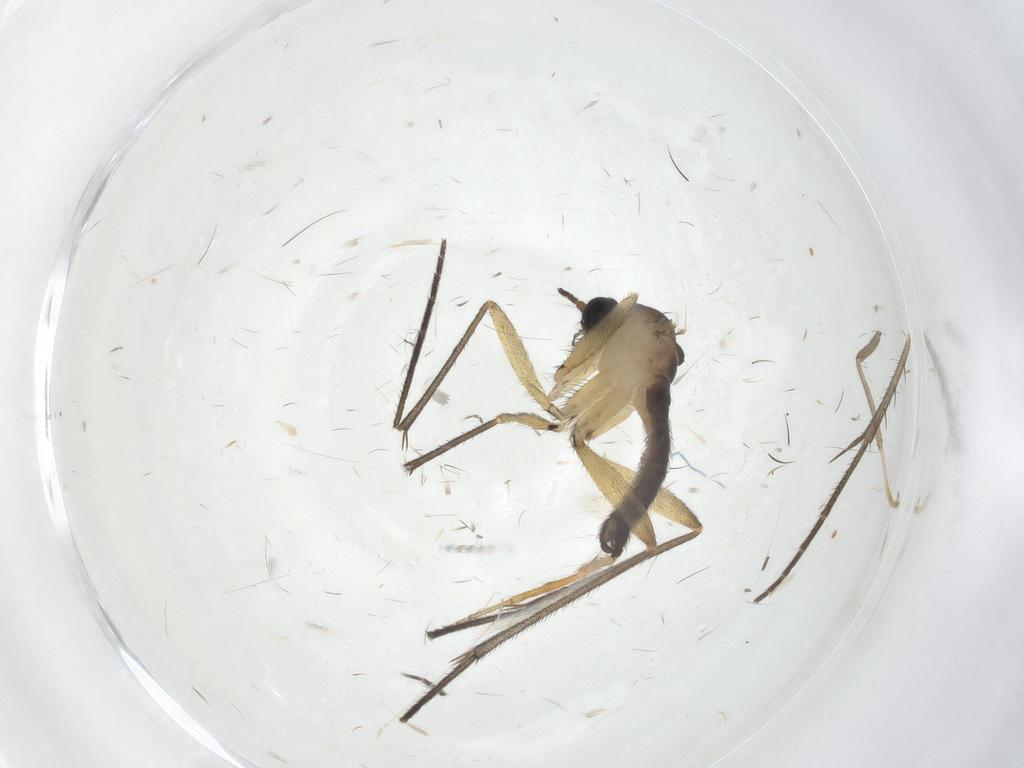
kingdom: Animalia
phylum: Arthropoda
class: Insecta
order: Diptera
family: Sciaridae
